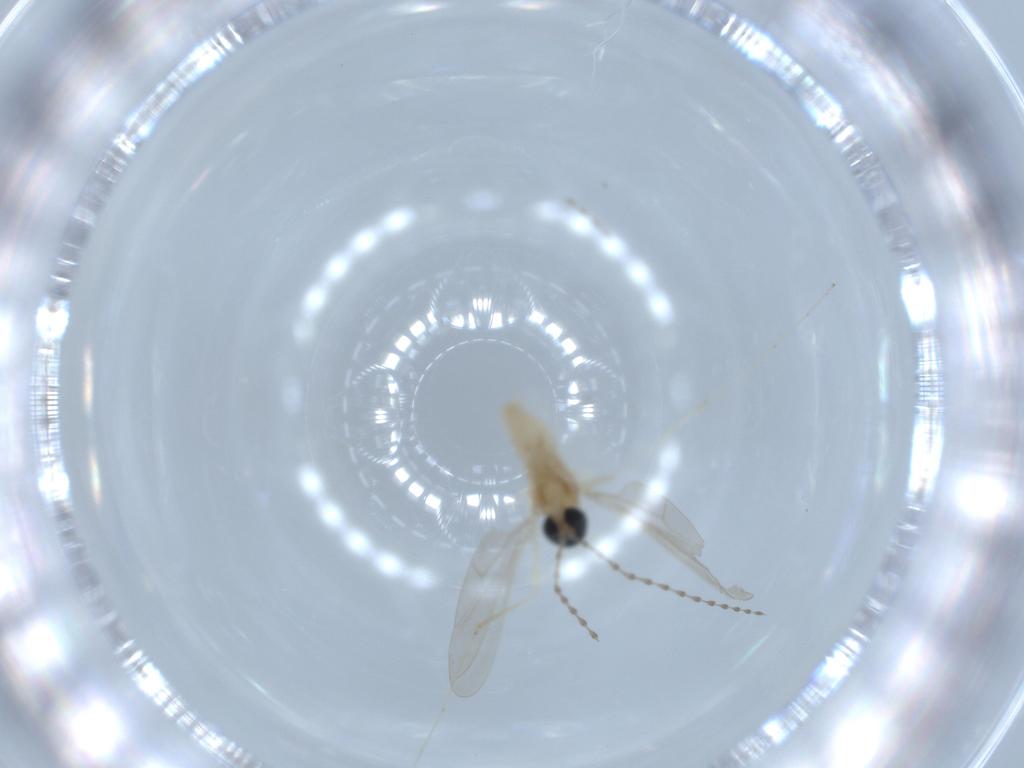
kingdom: Animalia
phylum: Arthropoda
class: Insecta
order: Diptera
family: Cecidomyiidae
